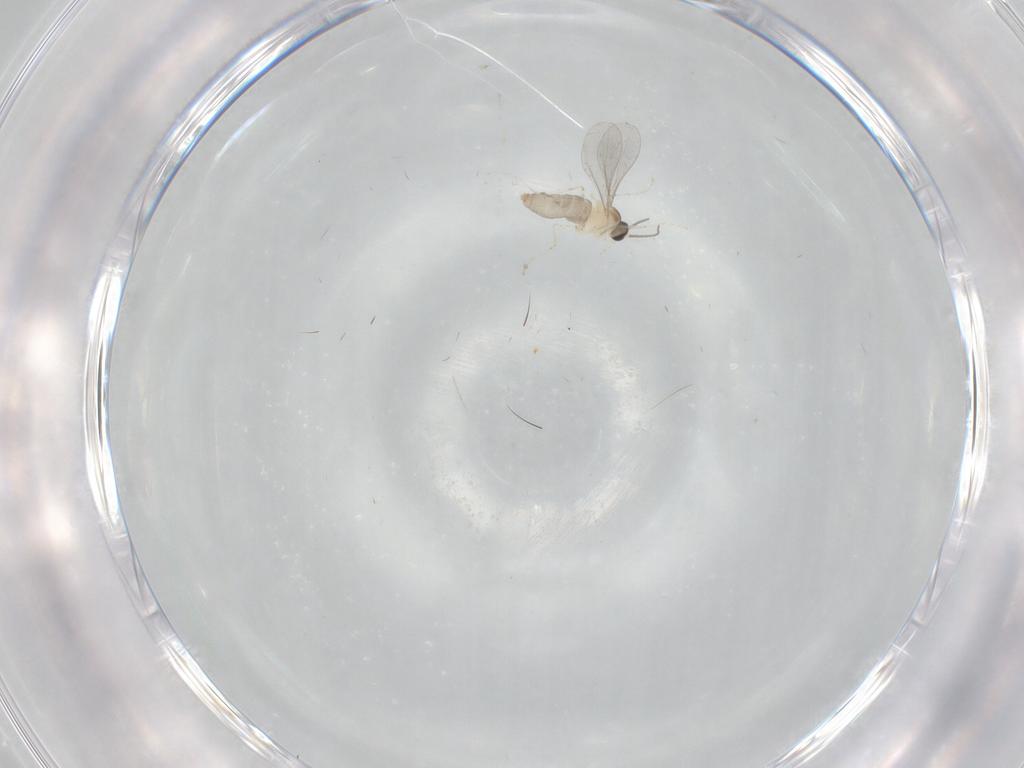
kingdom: Animalia
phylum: Arthropoda
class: Insecta
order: Diptera
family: Cecidomyiidae
